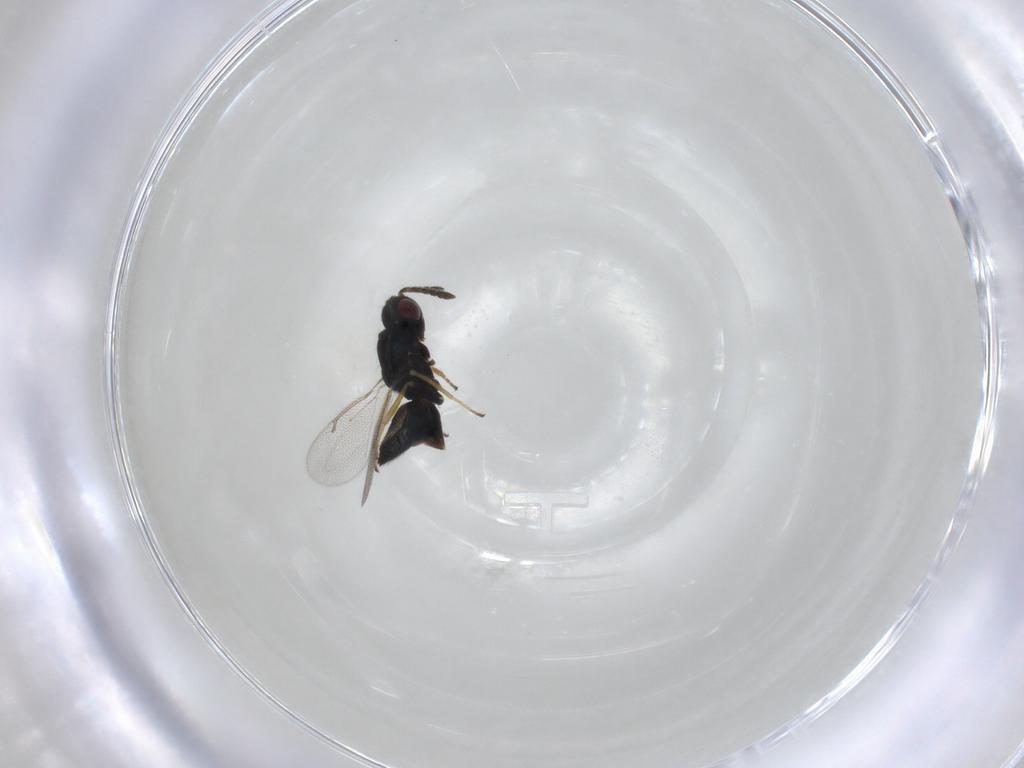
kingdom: Animalia
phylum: Arthropoda
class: Insecta
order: Hymenoptera
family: Eulophidae
